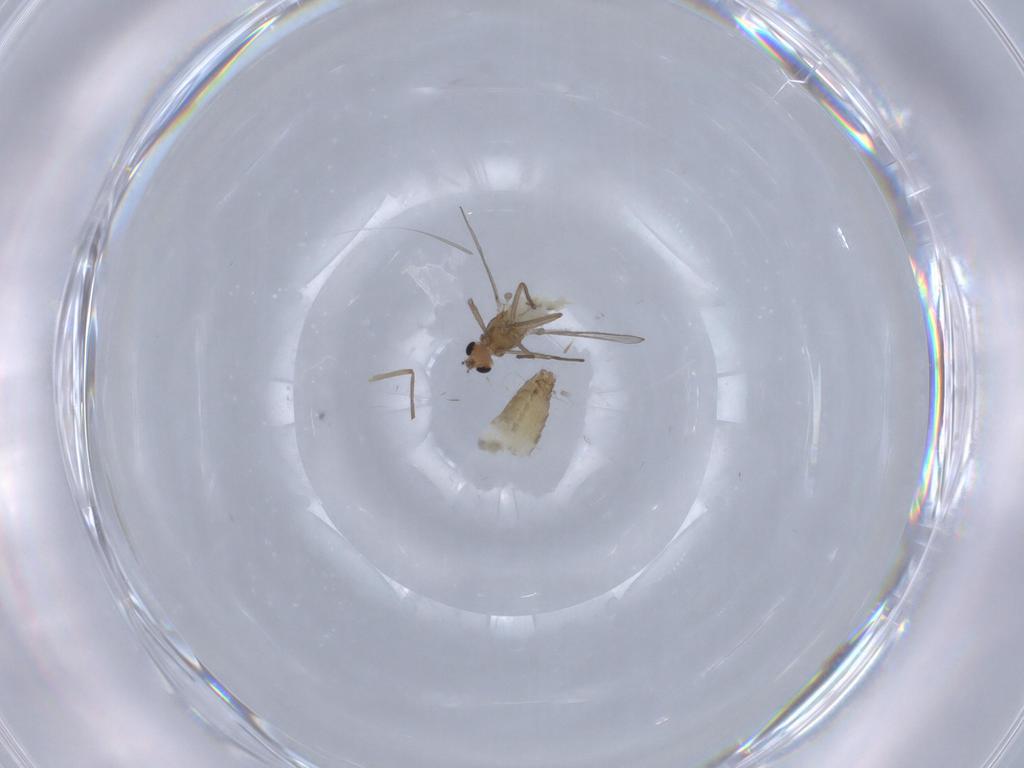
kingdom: Animalia
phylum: Arthropoda
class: Insecta
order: Diptera
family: Chironomidae
